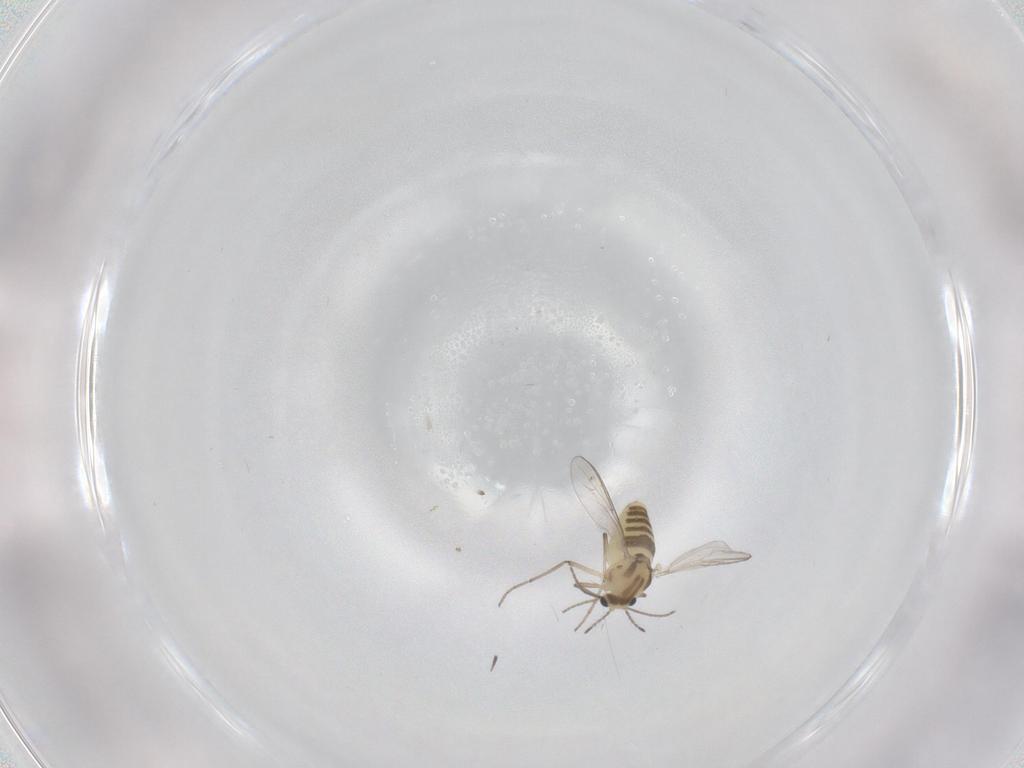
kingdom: Animalia
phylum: Arthropoda
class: Insecta
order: Diptera
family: Chironomidae
